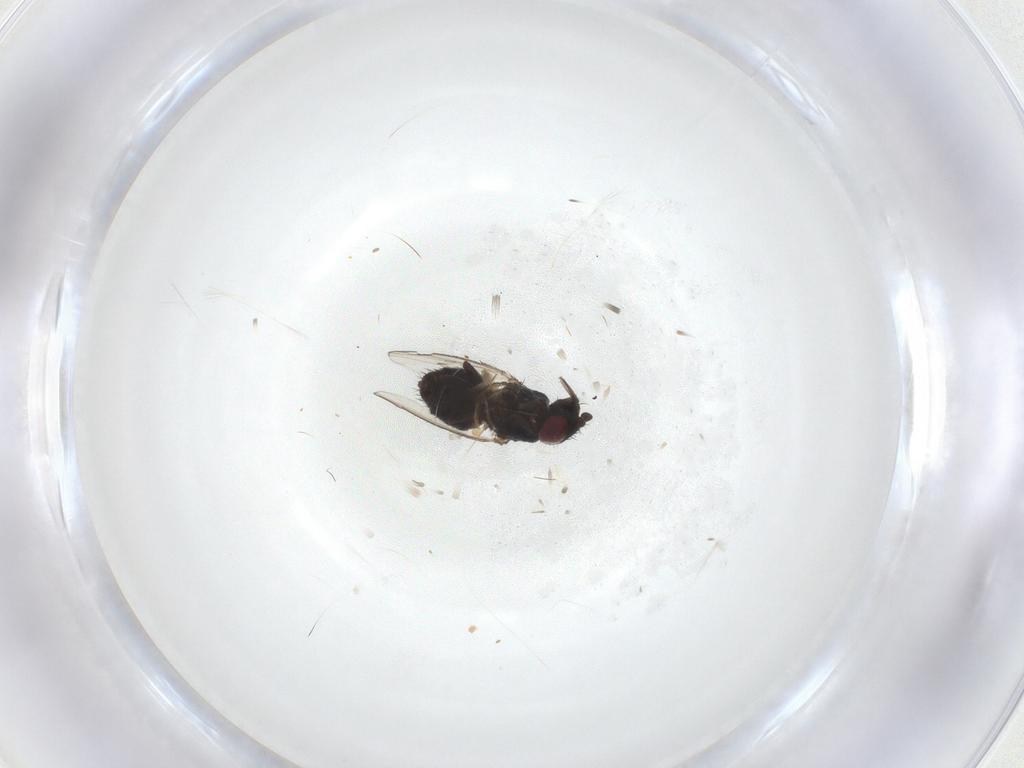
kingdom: Animalia
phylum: Arthropoda
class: Insecta
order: Diptera
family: Milichiidae
